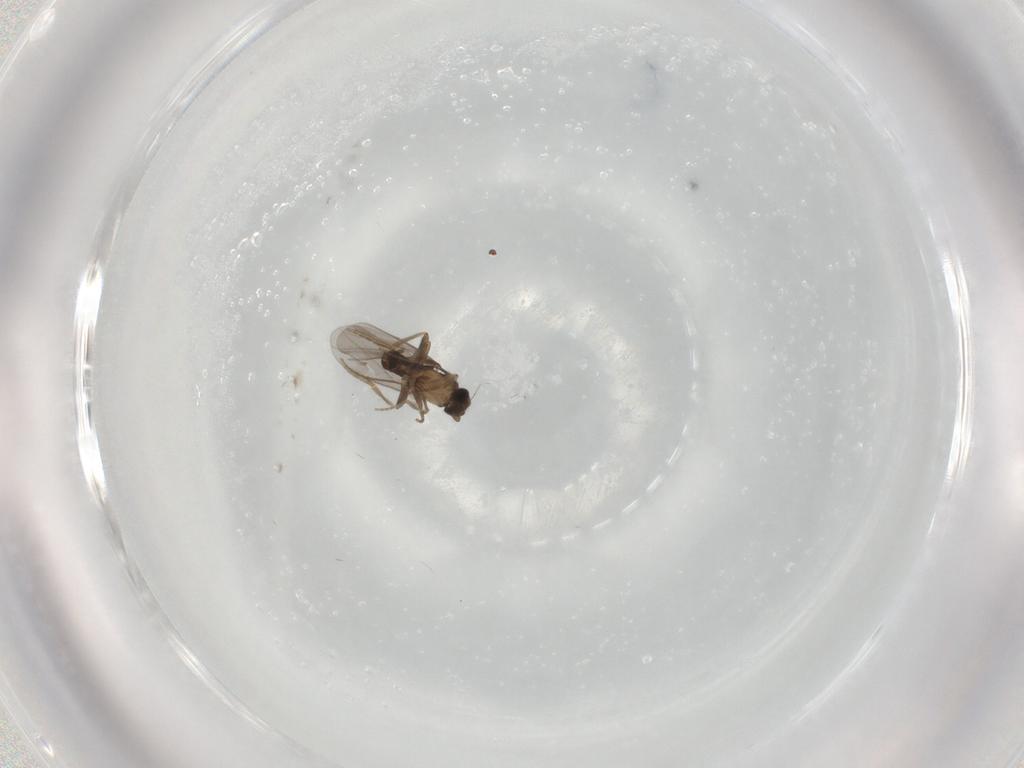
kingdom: Animalia
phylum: Arthropoda
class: Insecta
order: Diptera
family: Psychodidae
